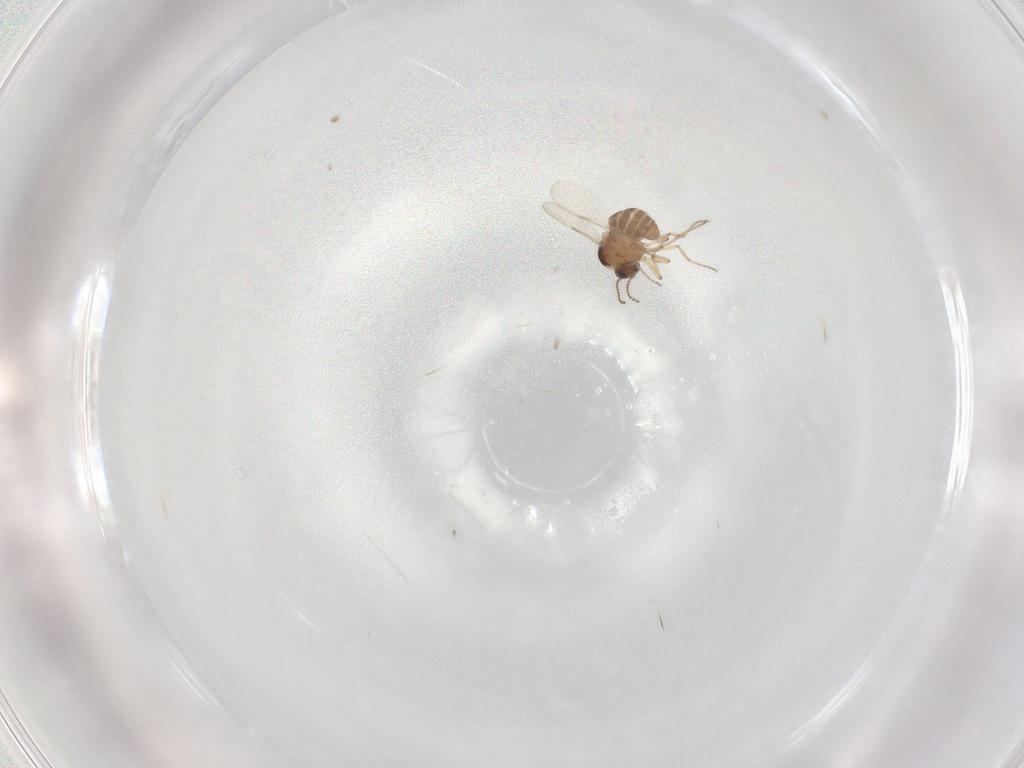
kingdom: Animalia
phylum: Arthropoda
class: Insecta
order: Diptera
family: Ceratopogonidae
